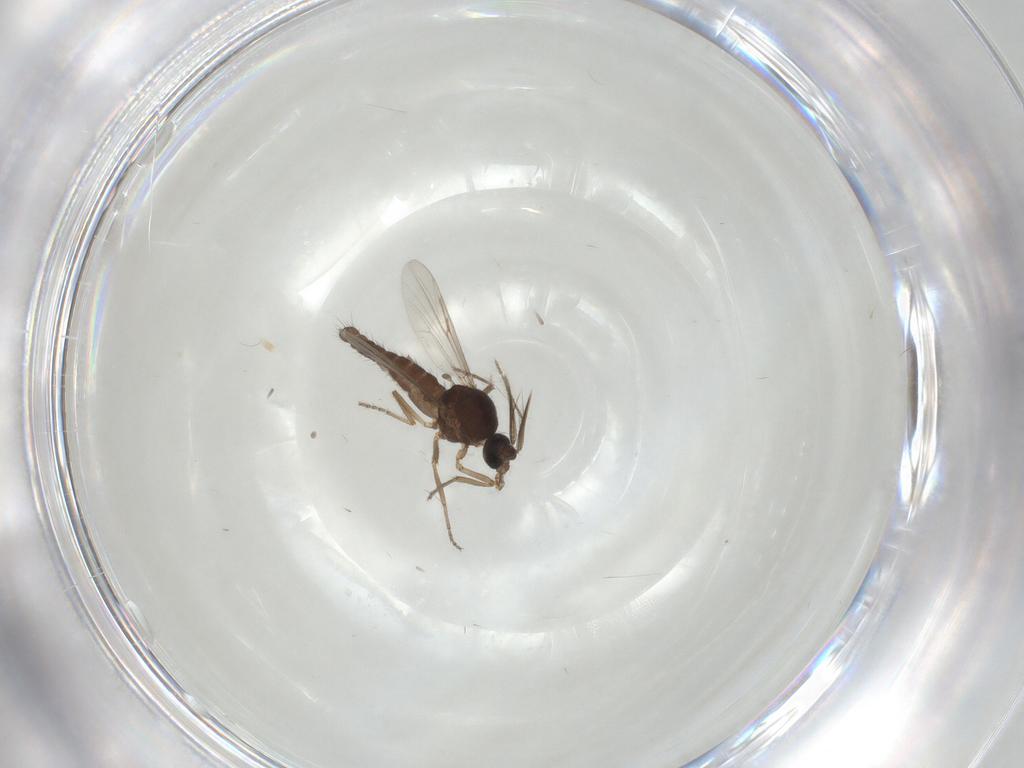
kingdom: Animalia
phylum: Arthropoda
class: Insecta
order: Diptera
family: Ceratopogonidae
